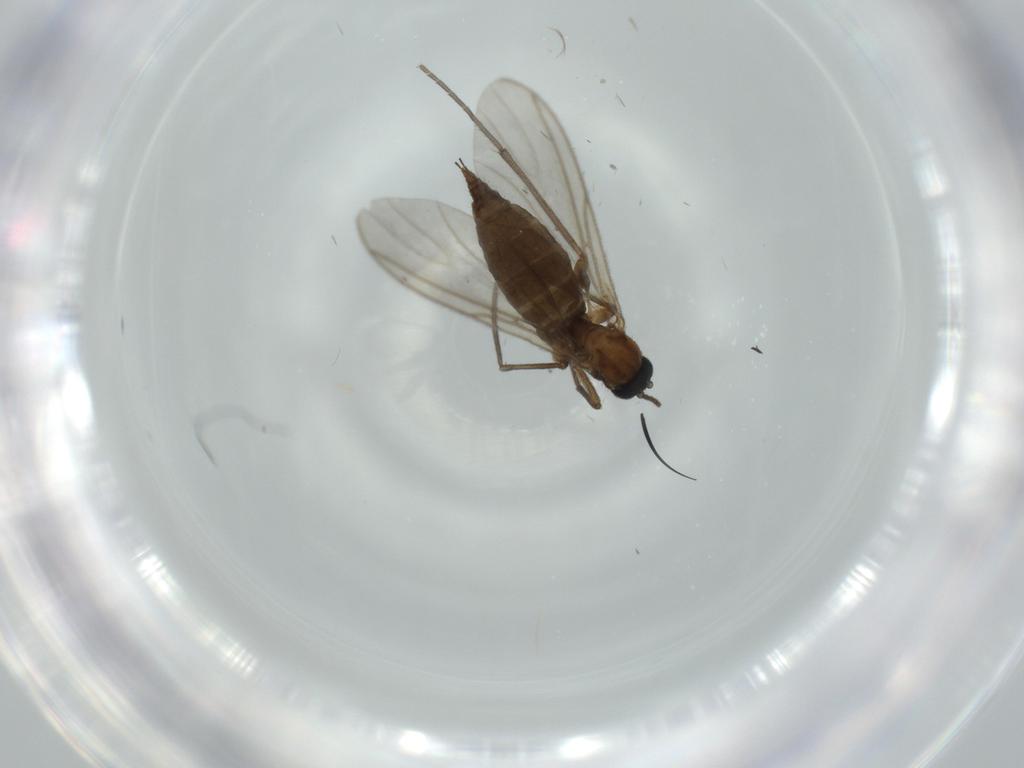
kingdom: Animalia
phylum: Arthropoda
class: Insecta
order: Diptera
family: Sciaridae
